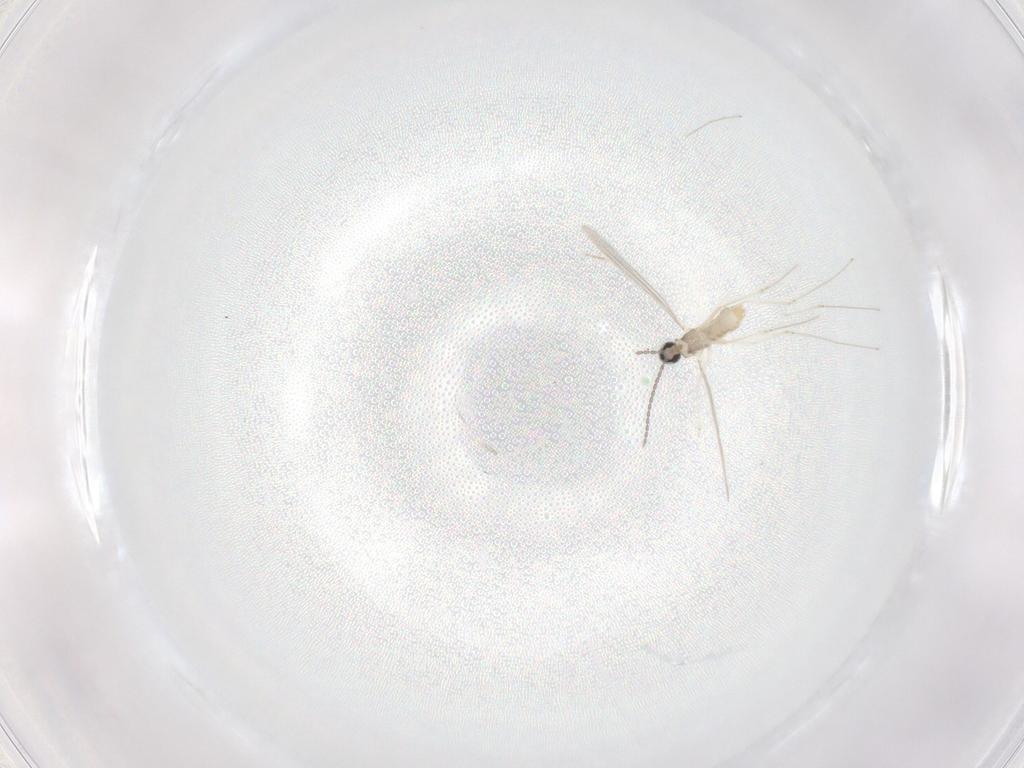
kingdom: Animalia
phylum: Arthropoda
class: Insecta
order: Diptera
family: Cecidomyiidae
